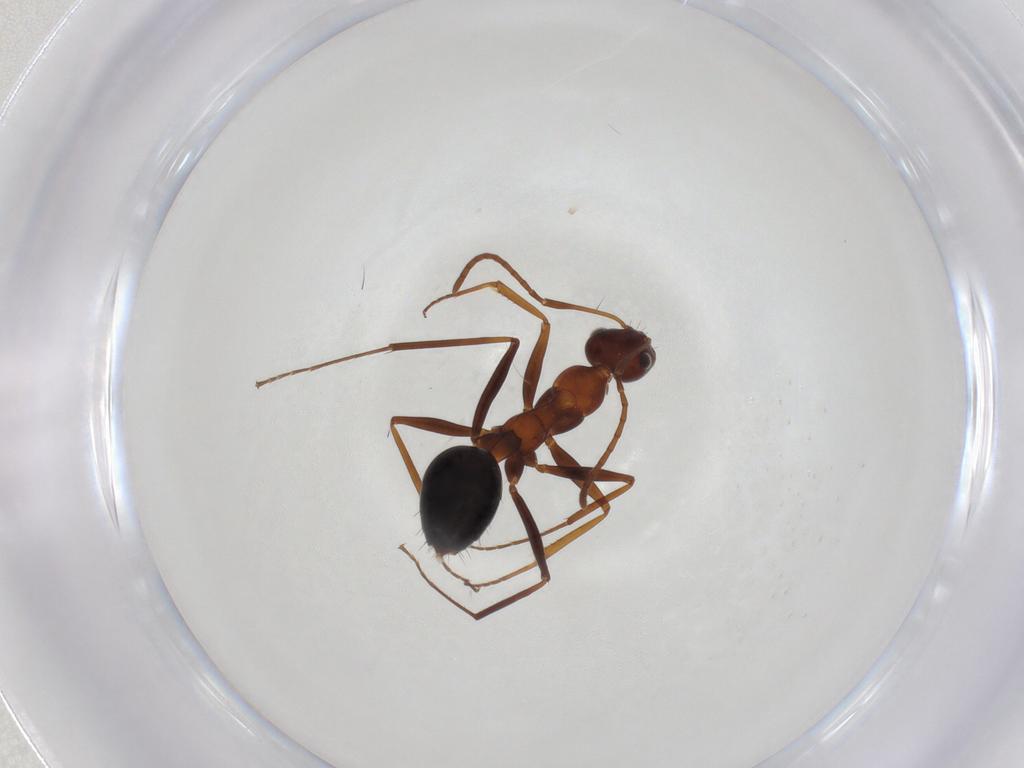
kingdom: Animalia
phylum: Arthropoda
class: Insecta
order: Hymenoptera
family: Formicidae
